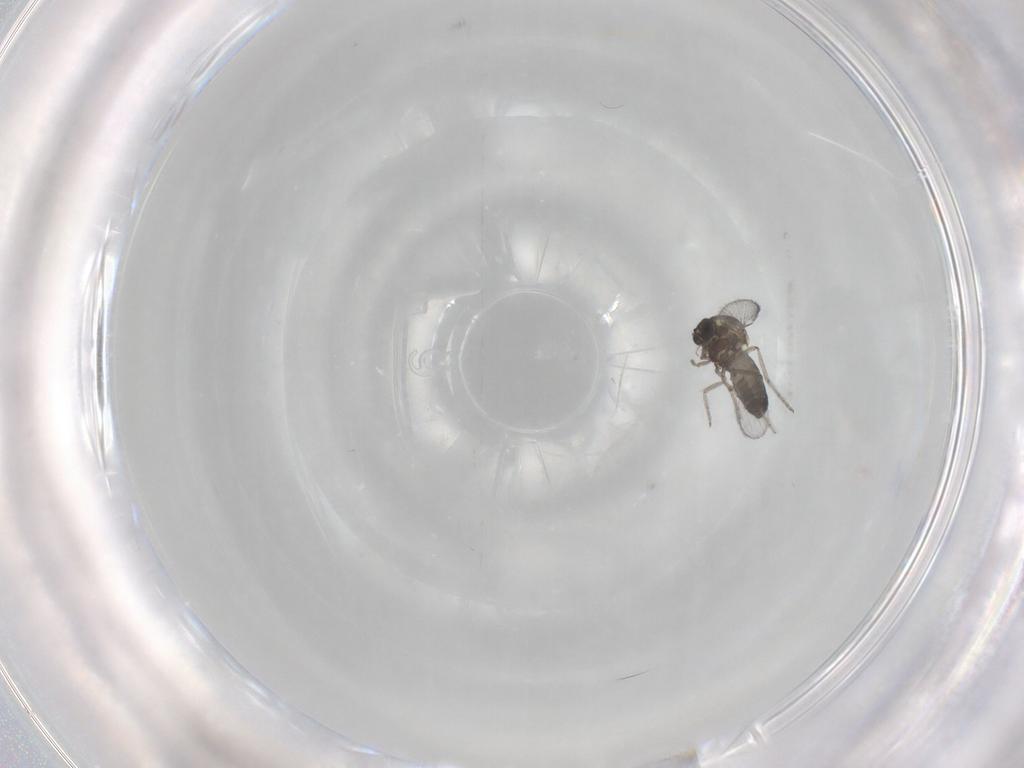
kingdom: Animalia
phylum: Arthropoda
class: Insecta
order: Diptera
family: Ceratopogonidae
